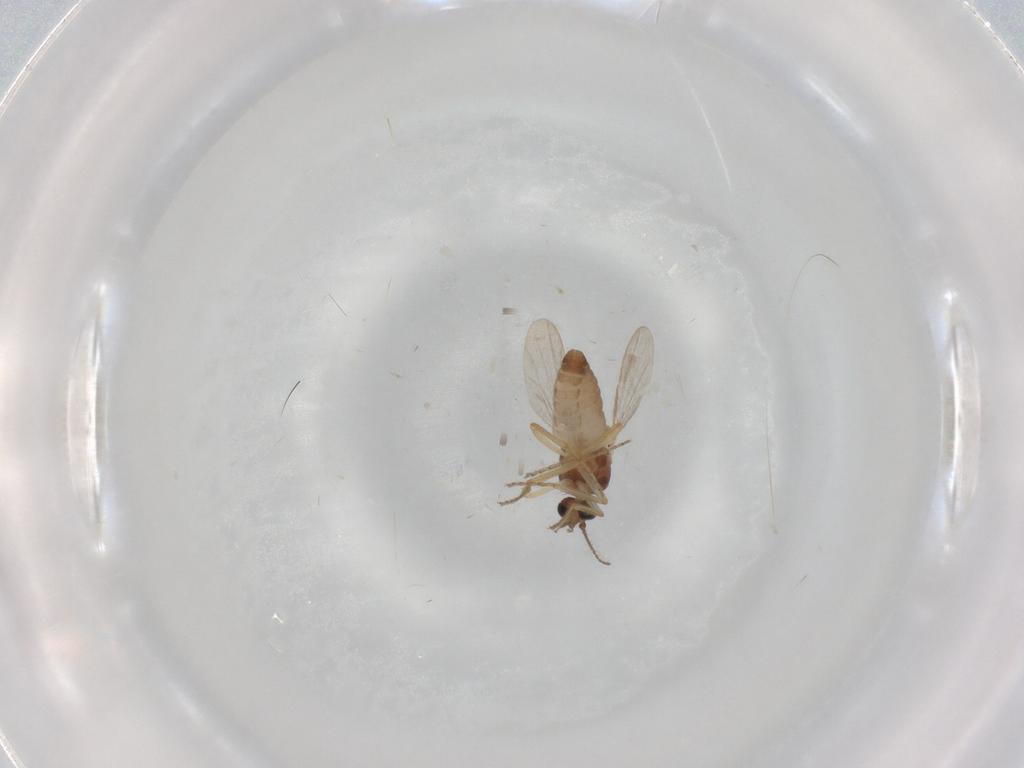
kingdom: Animalia
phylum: Arthropoda
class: Insecta
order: Diptera
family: Ceratopogonidae
